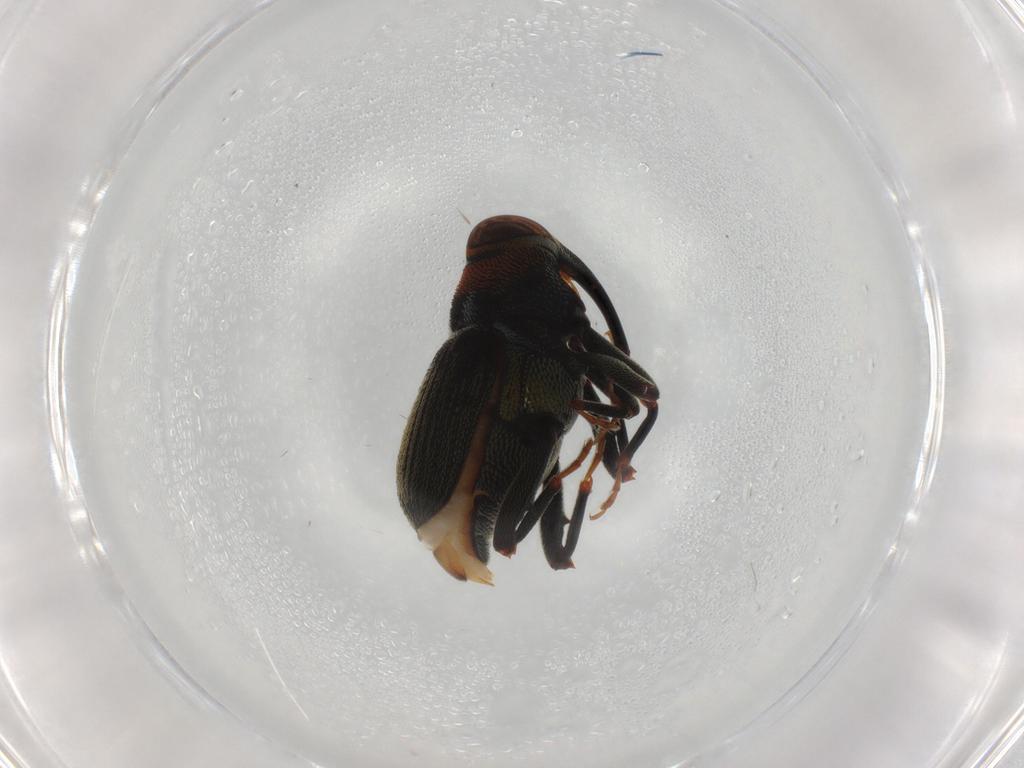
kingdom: Animalia
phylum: Arthropoda
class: Insecta
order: Coleoptera
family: Curculionidae
